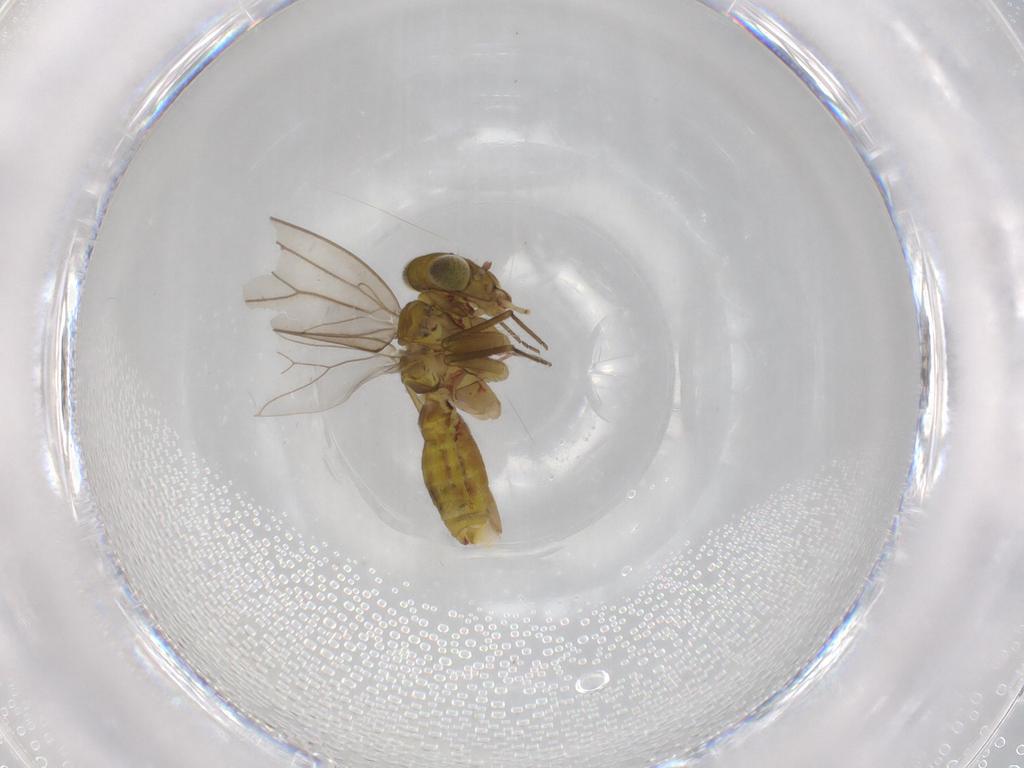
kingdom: Animalia
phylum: Arthropoda
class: Insecta
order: Psocodea
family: Philotarsidae
